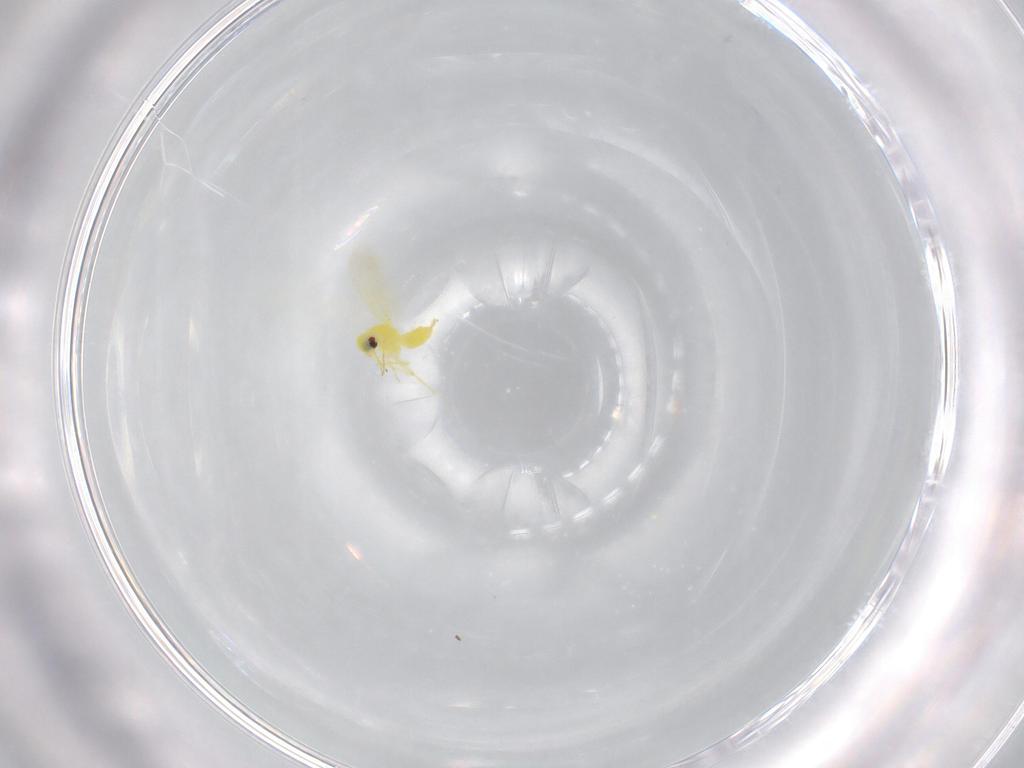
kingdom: Animalia
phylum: Arthropoda
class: Insecta
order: Hemiptera
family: Aleyrodidae
